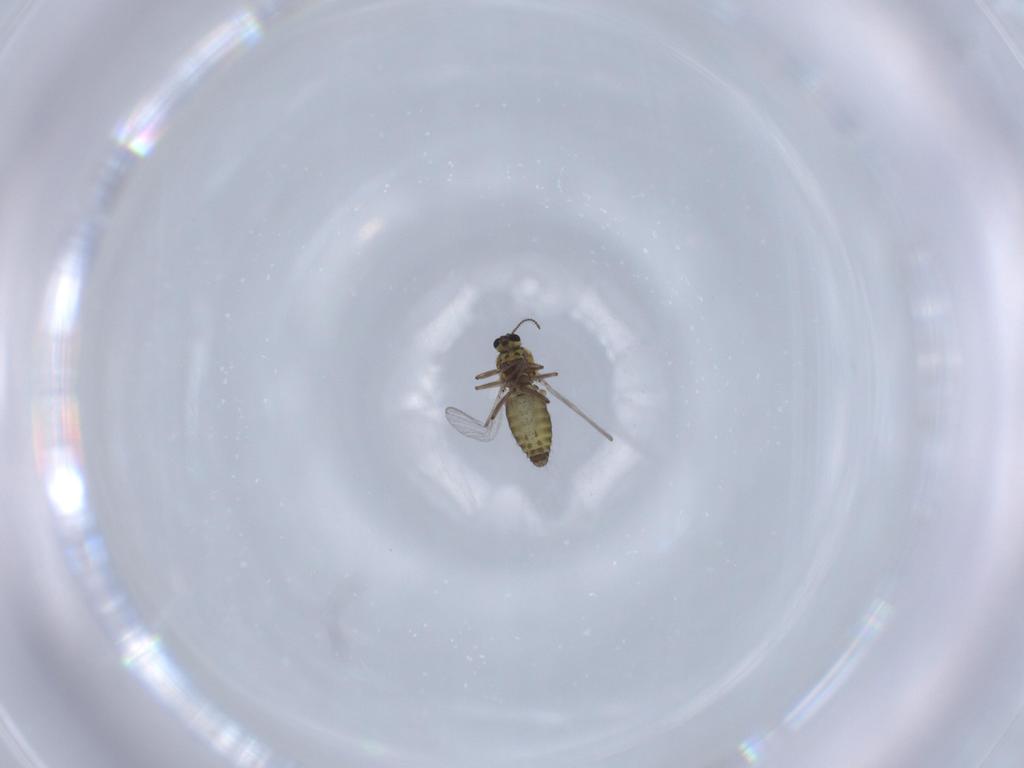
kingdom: Animalia
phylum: Arthropoda
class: Insecta
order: Diptera
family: Ceratopogonidae
